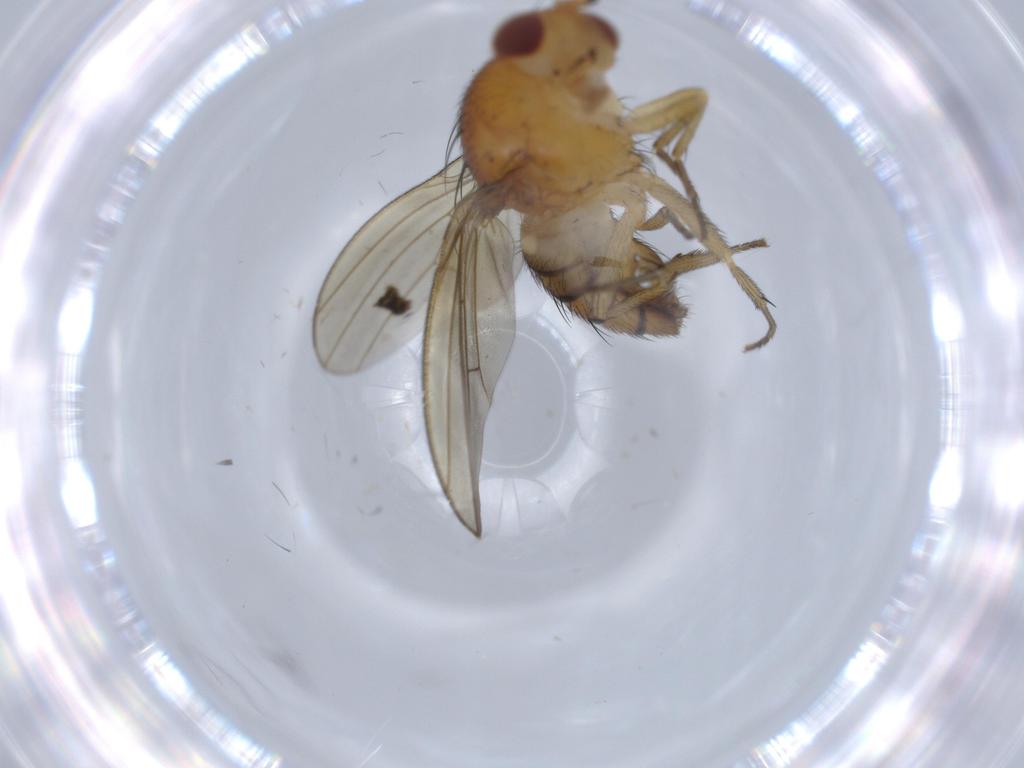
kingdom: Animalia
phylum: Arthropoda
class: Insecta
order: Diptera
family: Lauxaniidae
